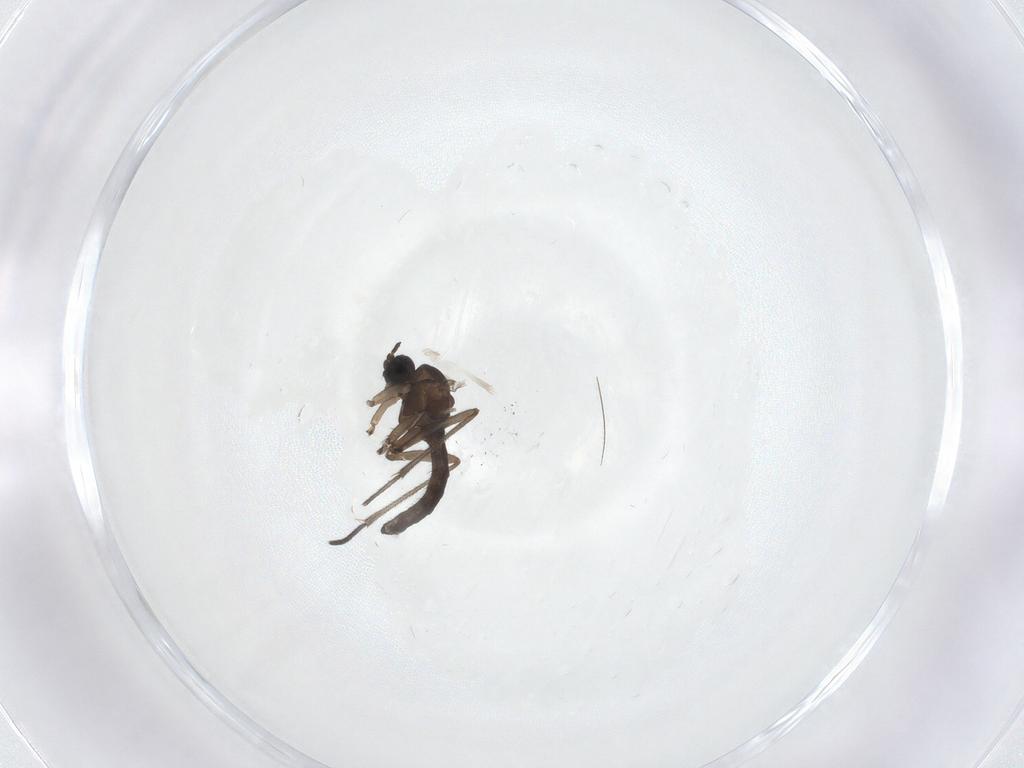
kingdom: Animalia
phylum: Arthropoda
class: Insecta
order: Diptera
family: Sciaridae
